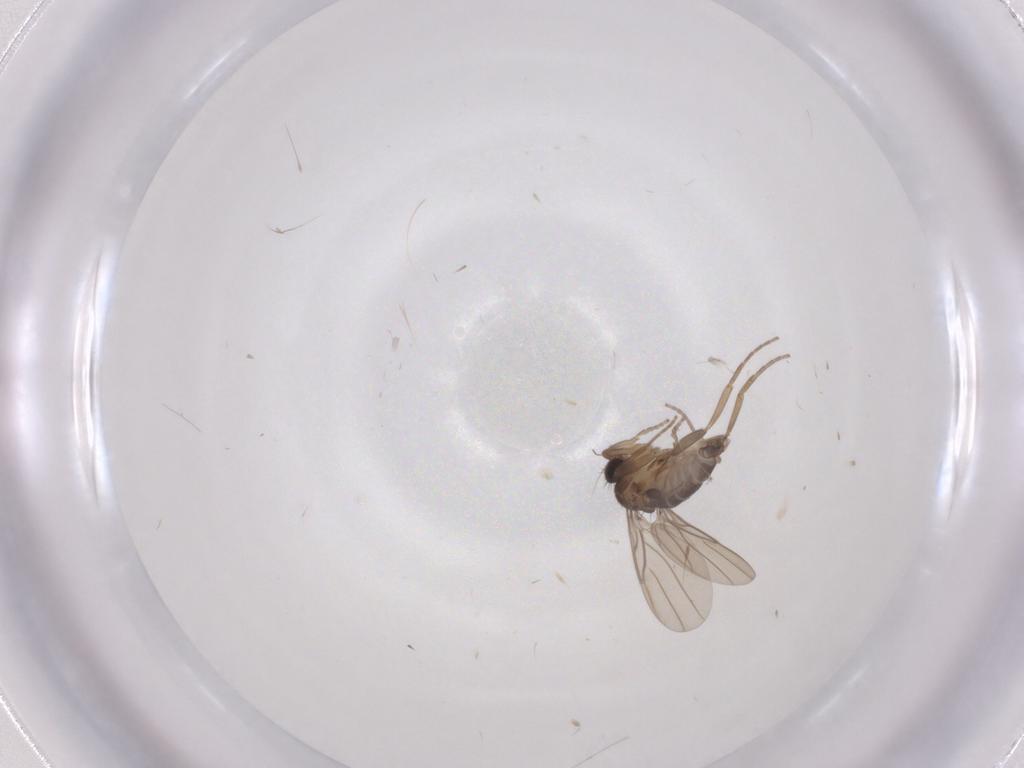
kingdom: Animalia
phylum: Arthropoda
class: Insecta
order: Diptera
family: Phoridae
